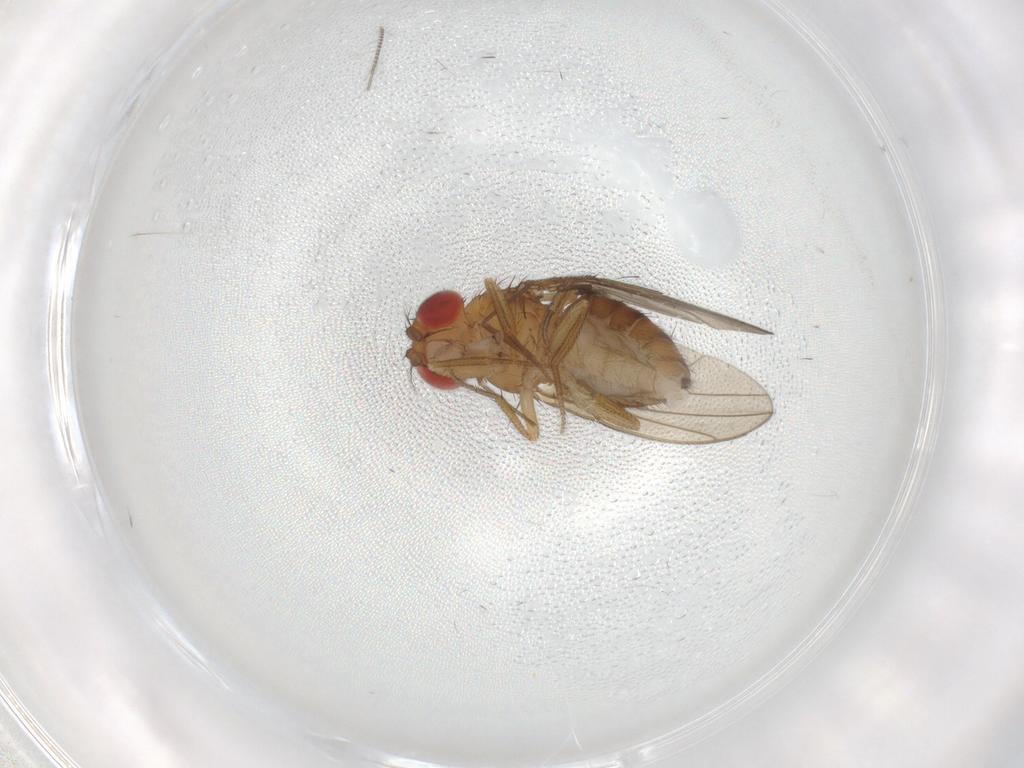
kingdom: Animalia
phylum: Arthropoda
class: Insecta
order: Diptera
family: Drosophilidae
